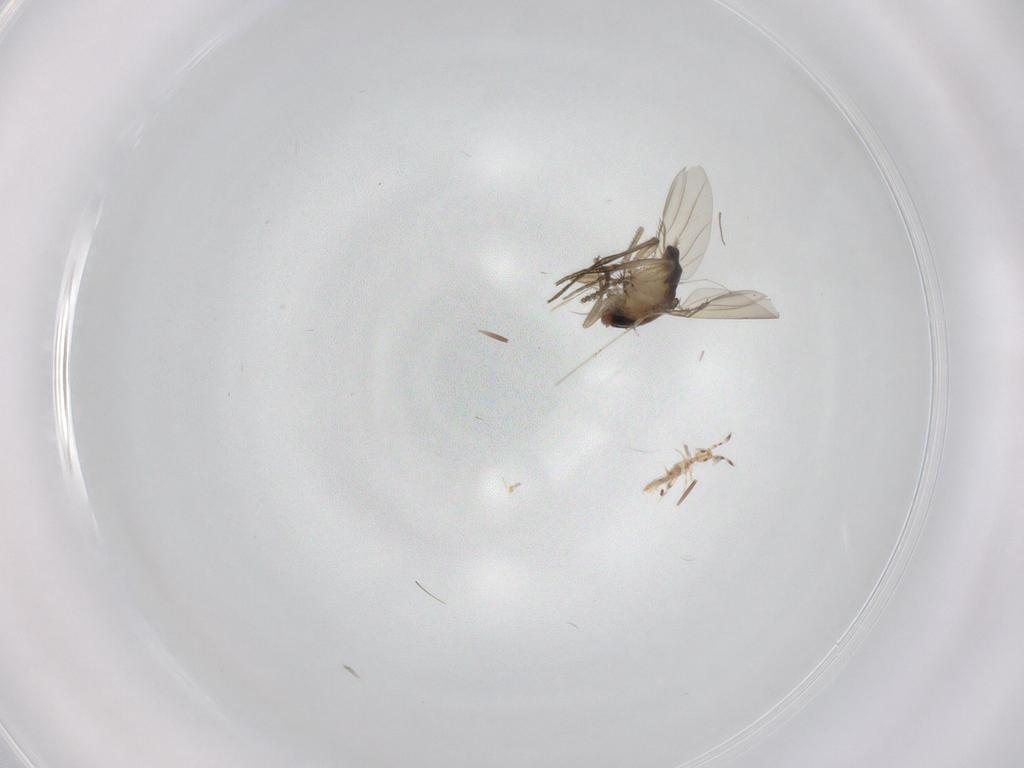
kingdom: Animalia
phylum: Arthropoda
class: Insecta
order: Diptera
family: Phoridae
